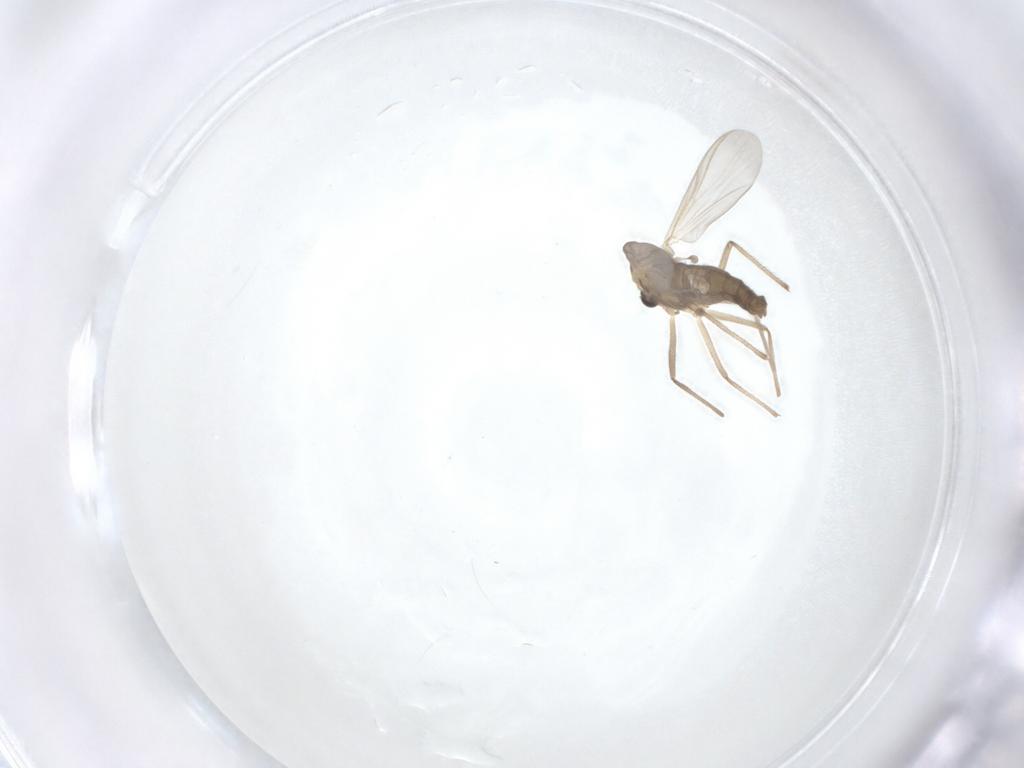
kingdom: Animalia
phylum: Arthropoda
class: Insecta
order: Diptera
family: Chironomidae
